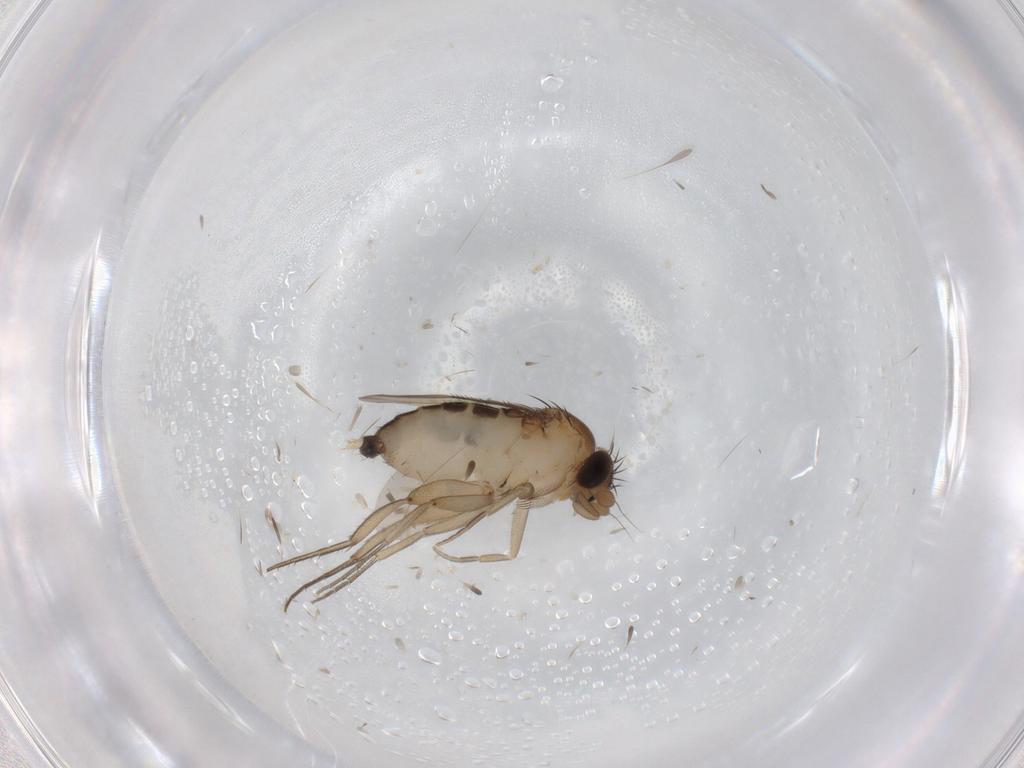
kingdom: Animalia
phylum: Arthropoda
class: Insecta
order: Diptera
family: Phoridae
